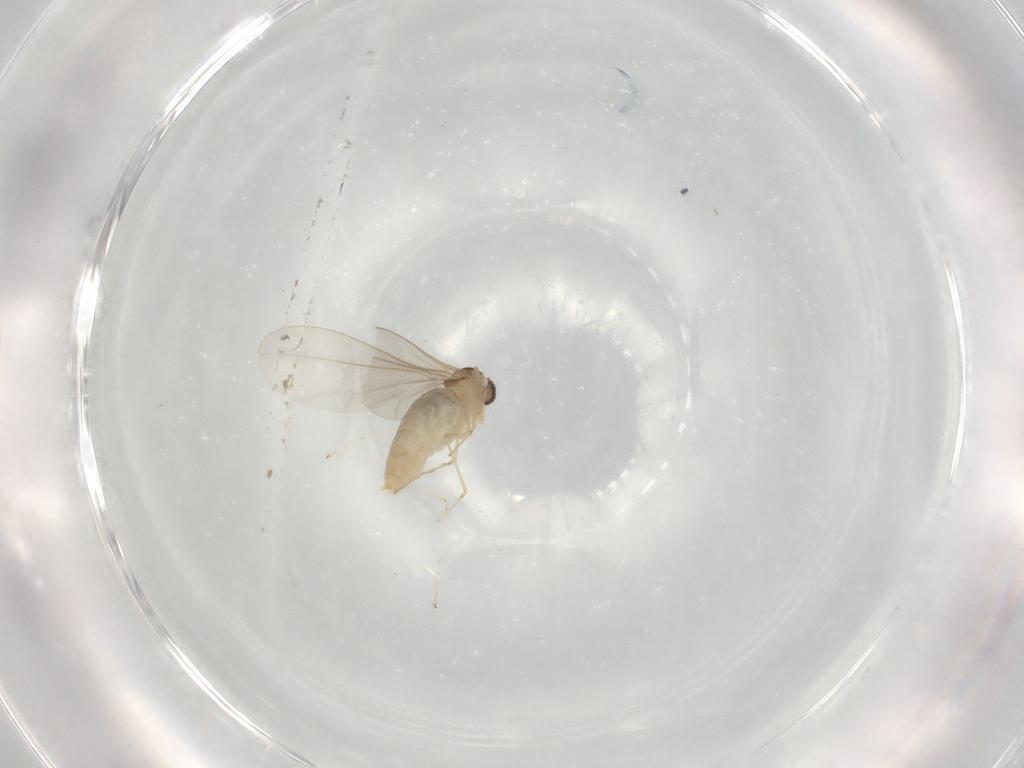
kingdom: Animalia
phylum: Arthropoda
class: Insecta
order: Diptera
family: Cecidomyiidae
